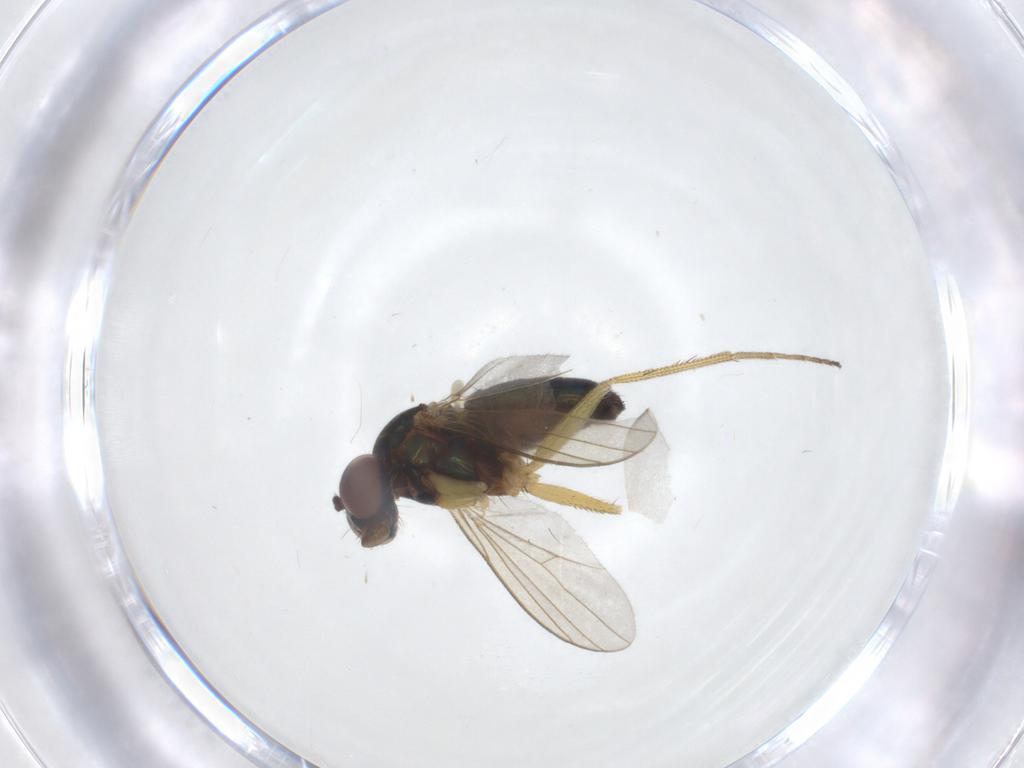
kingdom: Animalia
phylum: Arthropoda
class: Insecta
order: Diptera
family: Dolichopodidae
